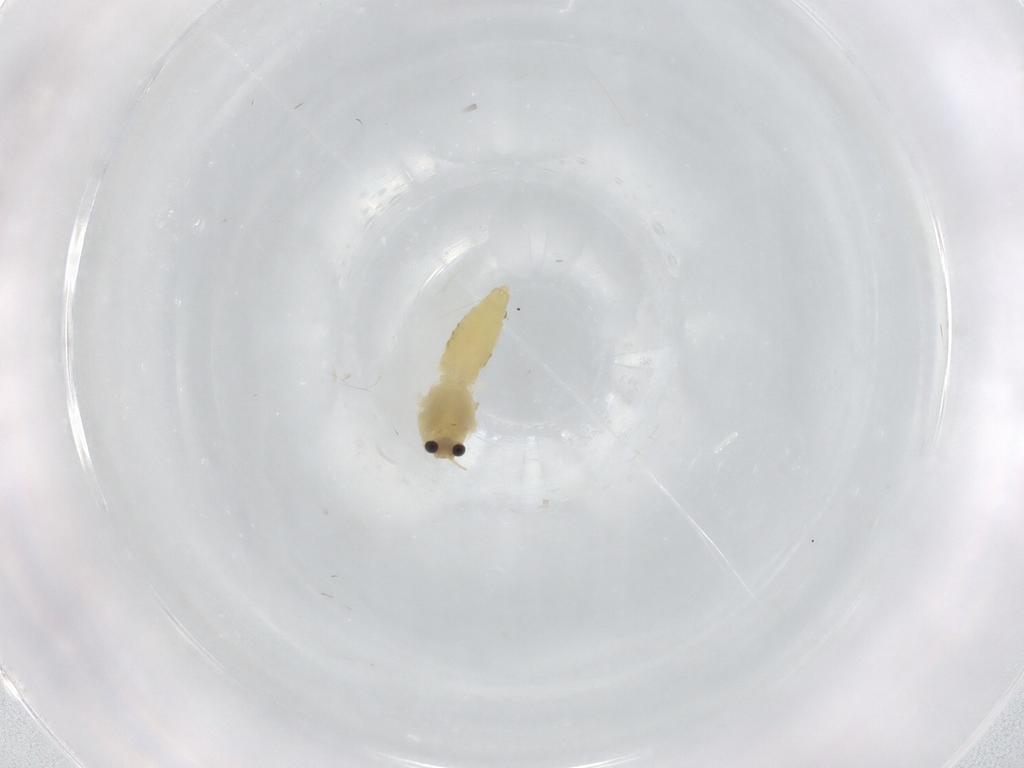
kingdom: Animalia
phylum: Arthropoda
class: Insecta
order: Diptera
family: Chironomidae
